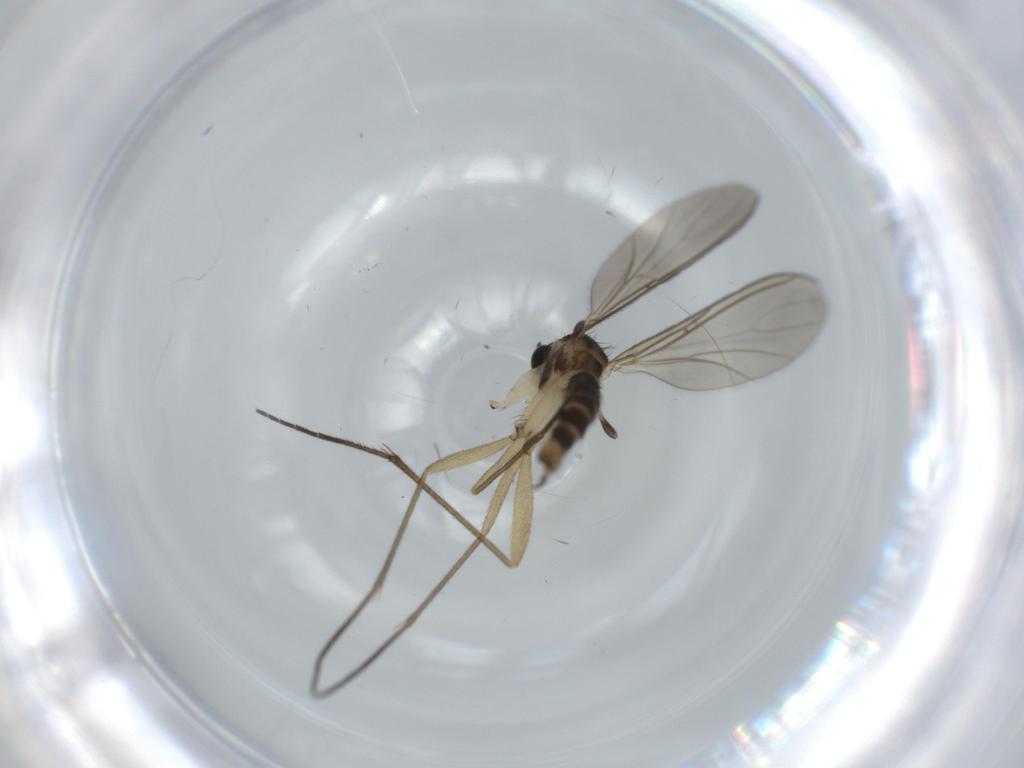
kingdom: Animalia
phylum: Arthropoda
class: Insecta
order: Diptera
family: Sciaridae
